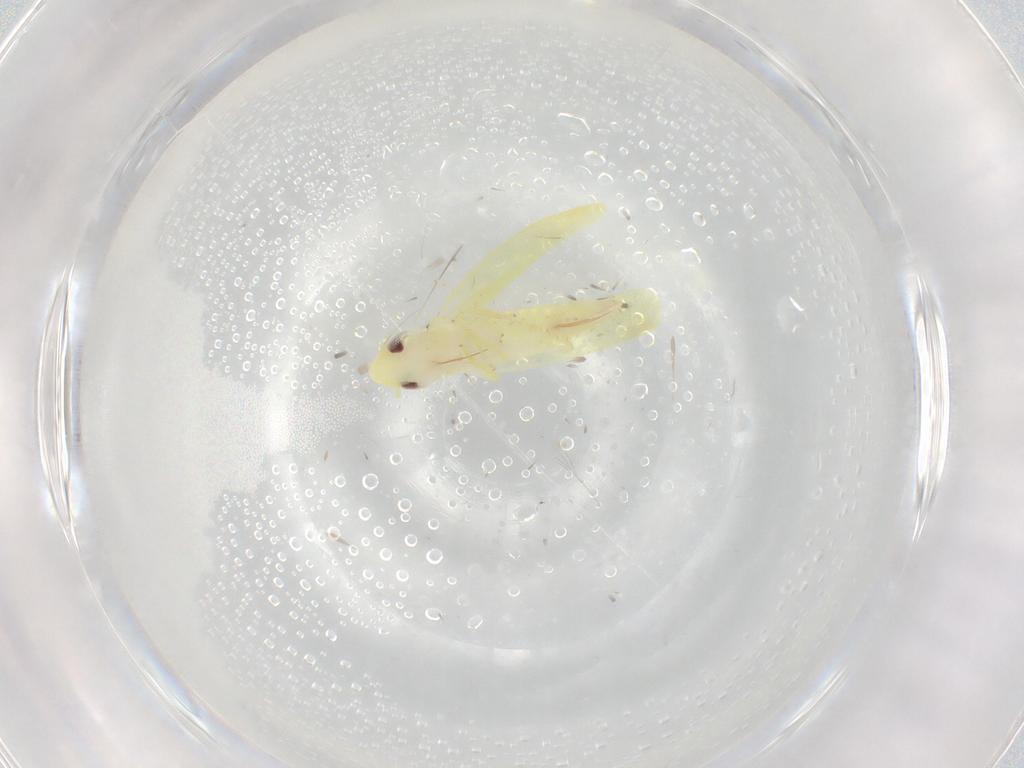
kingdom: Animalia
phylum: Arthropoda
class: Insecta
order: Hemiptera
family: Cicadellidae
